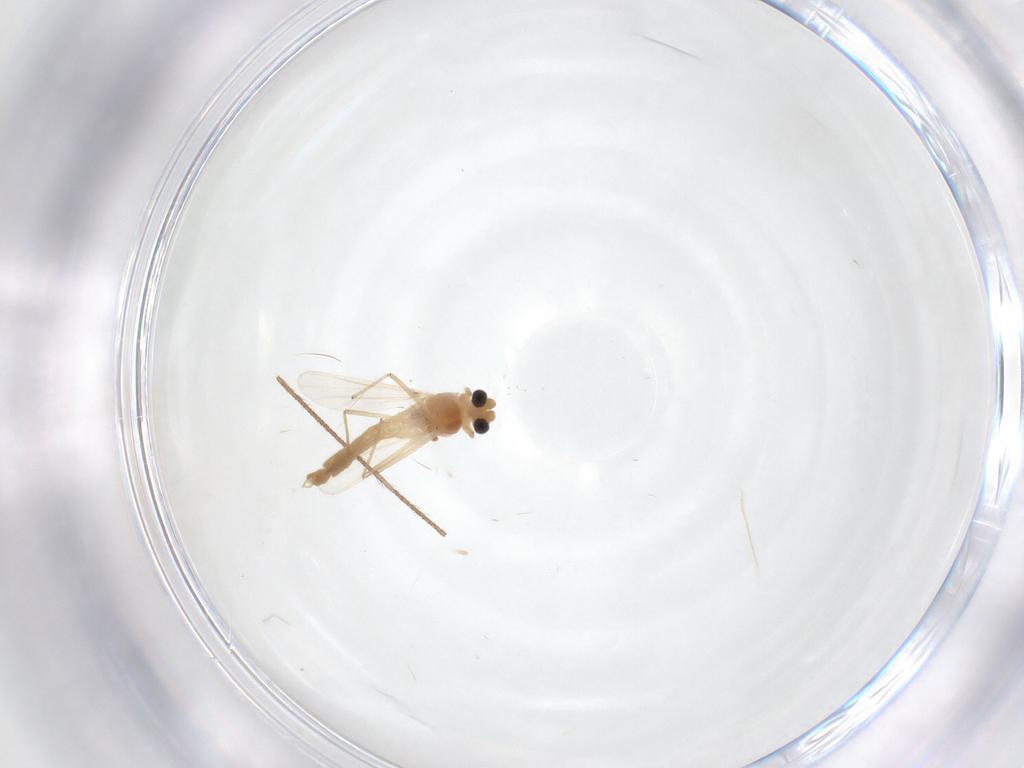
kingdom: Animalia
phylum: Arthropoda
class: Insecta
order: Diptera
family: Chironomidae
